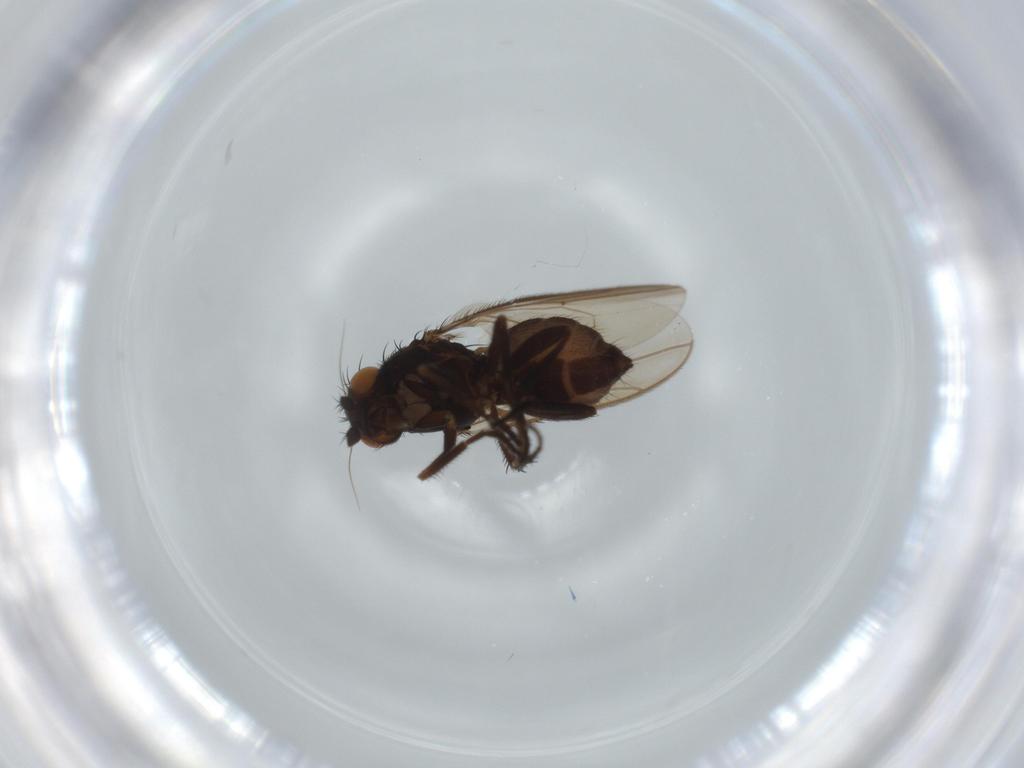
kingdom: Animalia
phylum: Arthropoda
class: Insecta
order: Diptera
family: Sphaeroceridae
